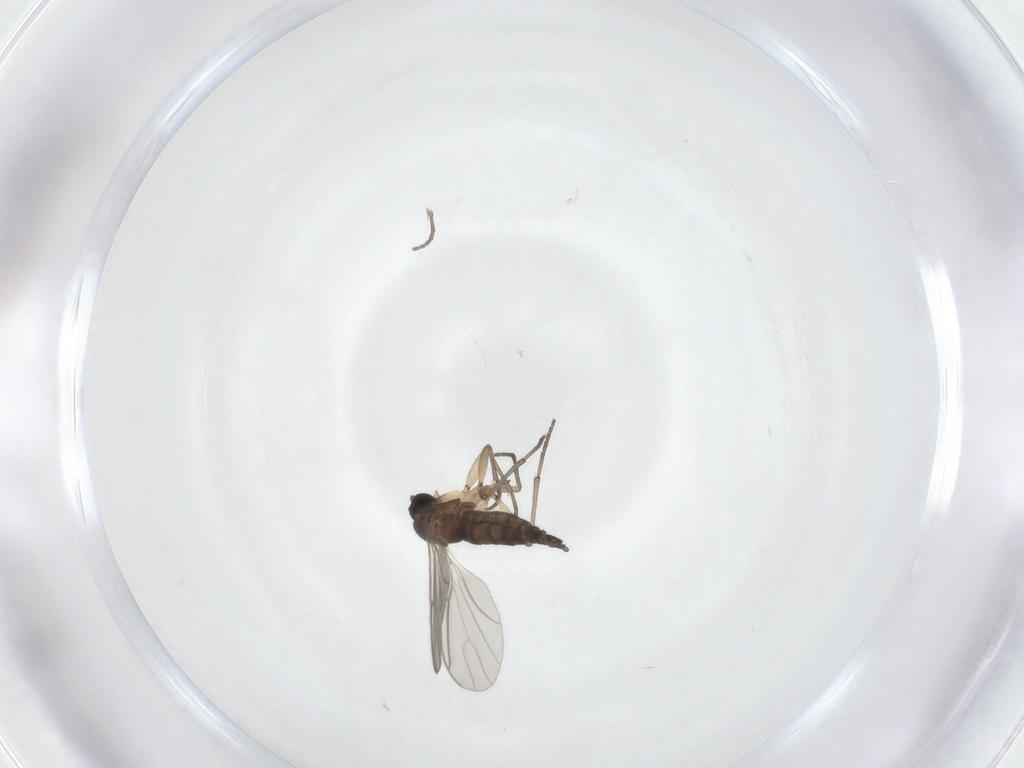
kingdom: Animalia
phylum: Arthropoda
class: Insecta
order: Diptera
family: Sciaridae
